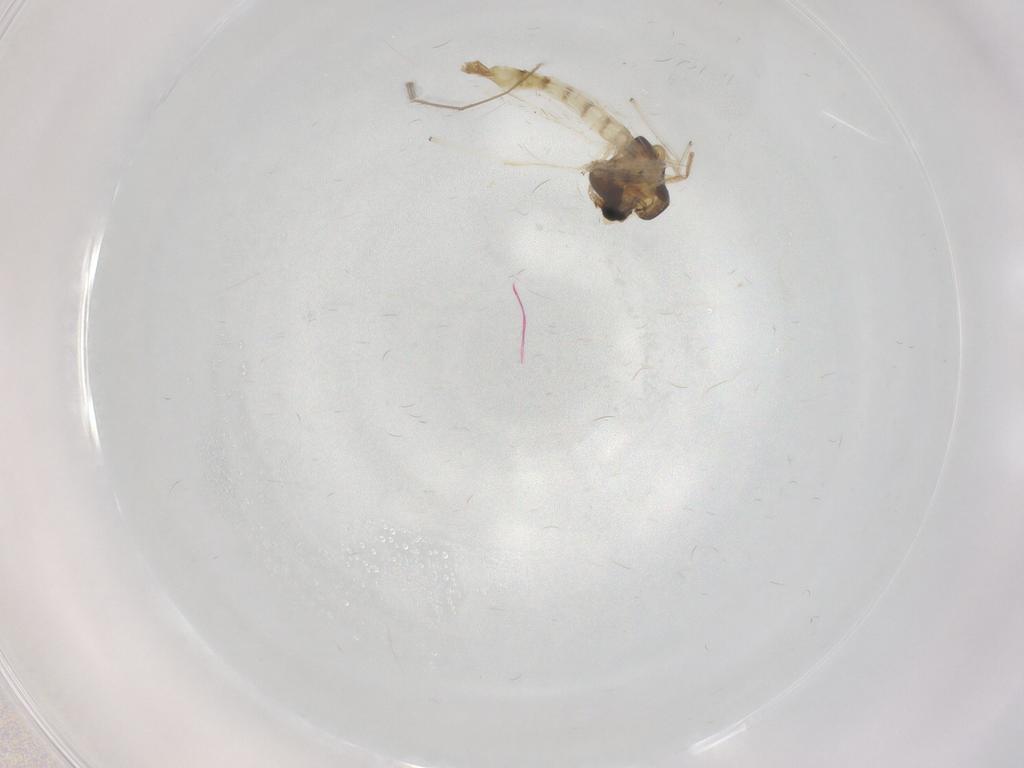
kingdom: Animalia
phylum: Arthropoda
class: Insecta
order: Diptera
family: Chironomidae
